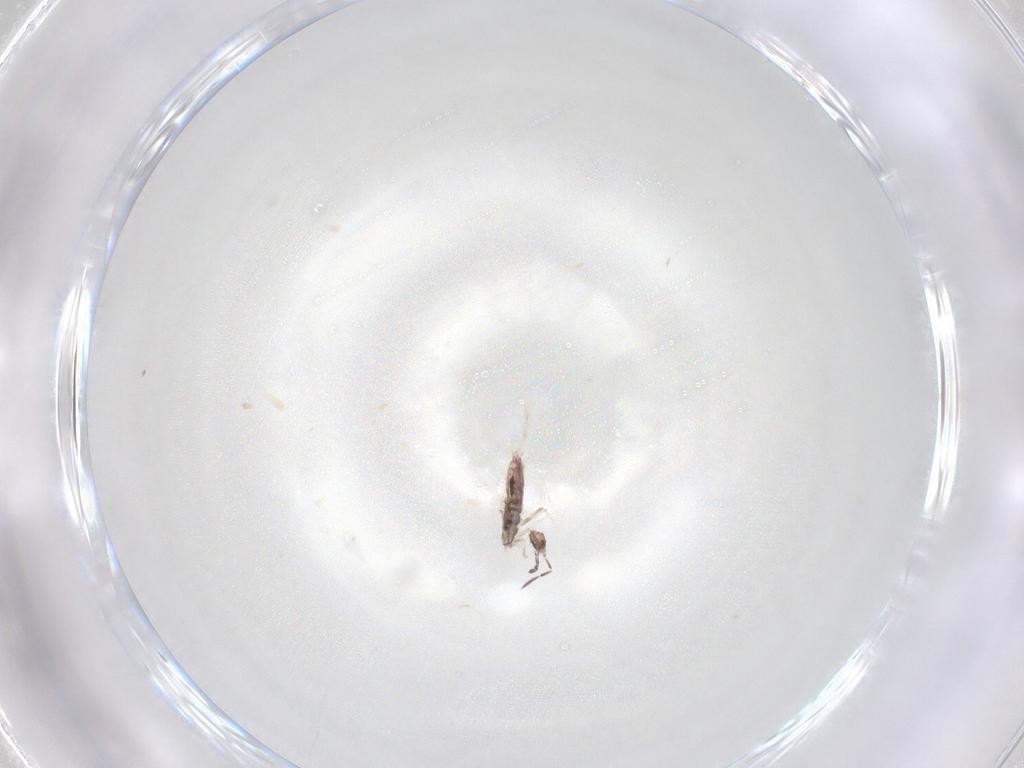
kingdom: Animalia
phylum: Arthropoda
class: Collembola
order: Poduromorpha
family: Hypogastruridae
